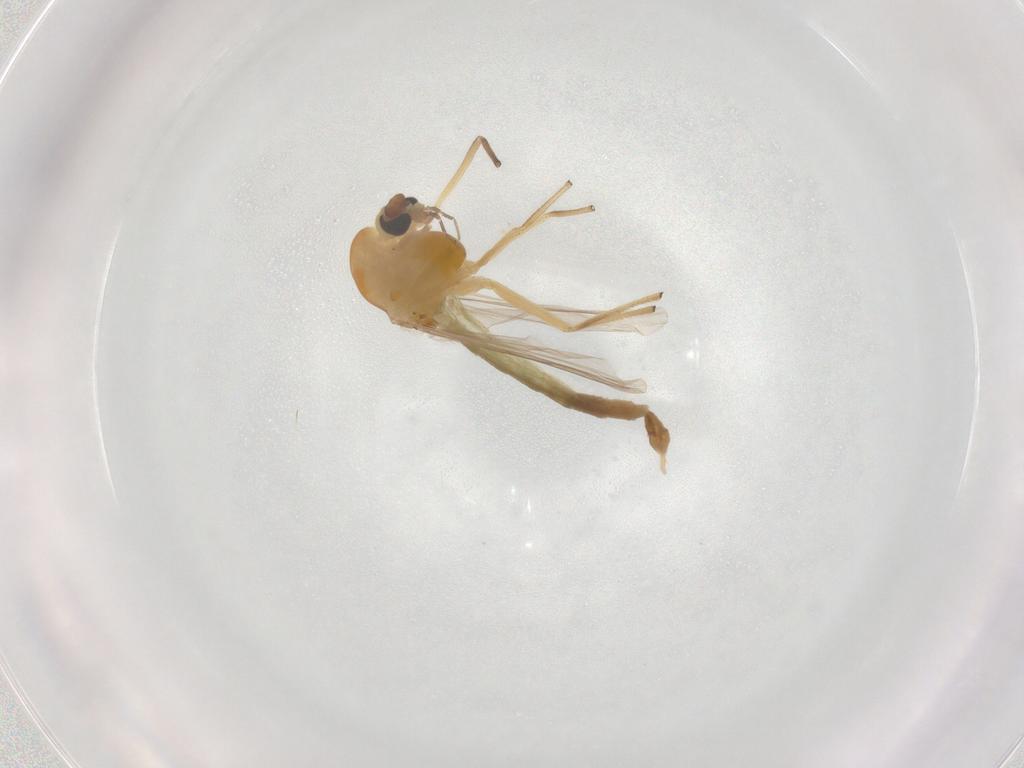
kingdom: Animalia
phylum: Arthropoda
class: Insecta
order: Diptera
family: Chironomidae
